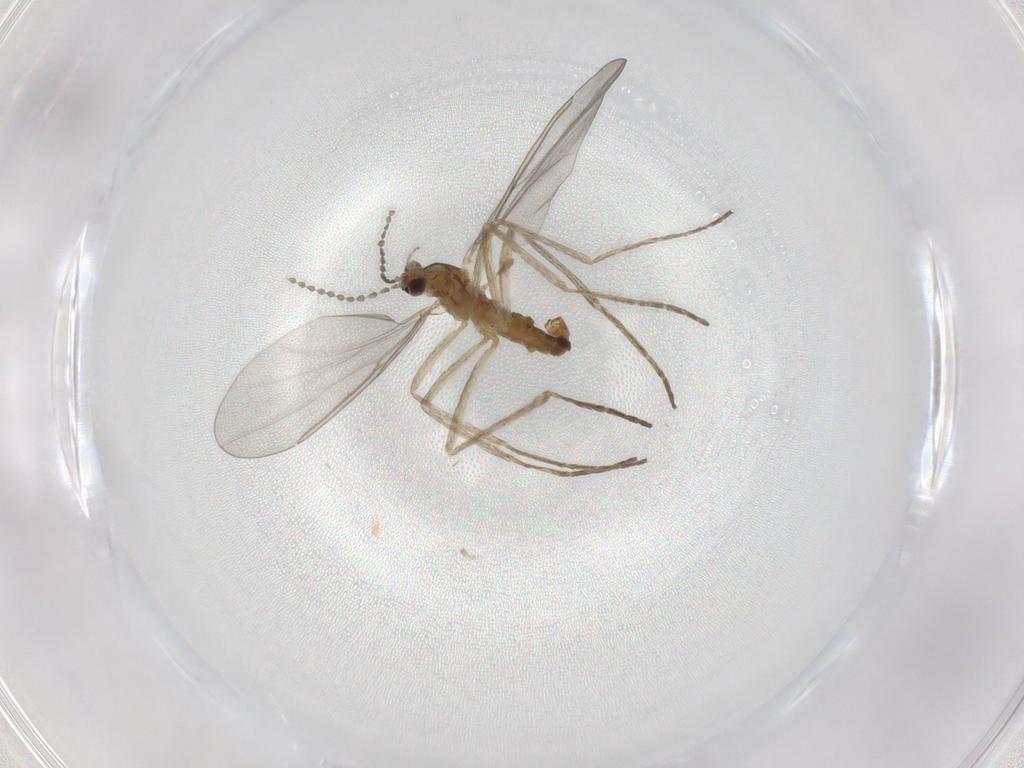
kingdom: Animalia
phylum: Arthropoda
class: Insecta
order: Diptera
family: Cecidomyiidae
